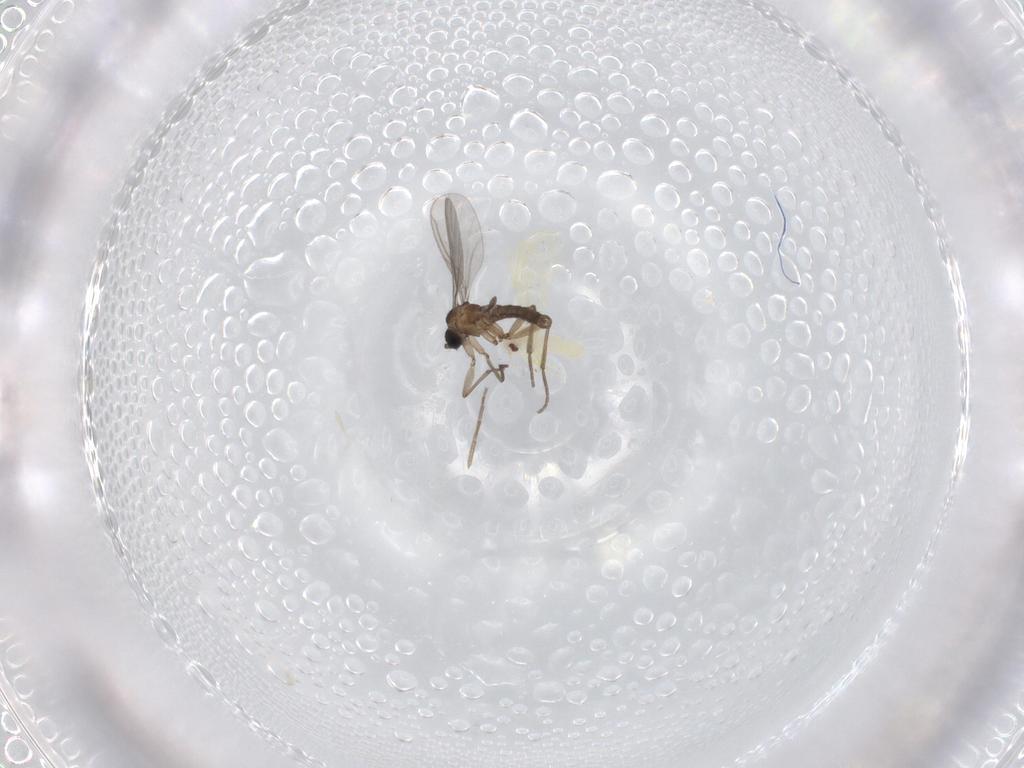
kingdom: Animalia
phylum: Arthropoda
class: Insecta
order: Diptera
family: Sciaridae
